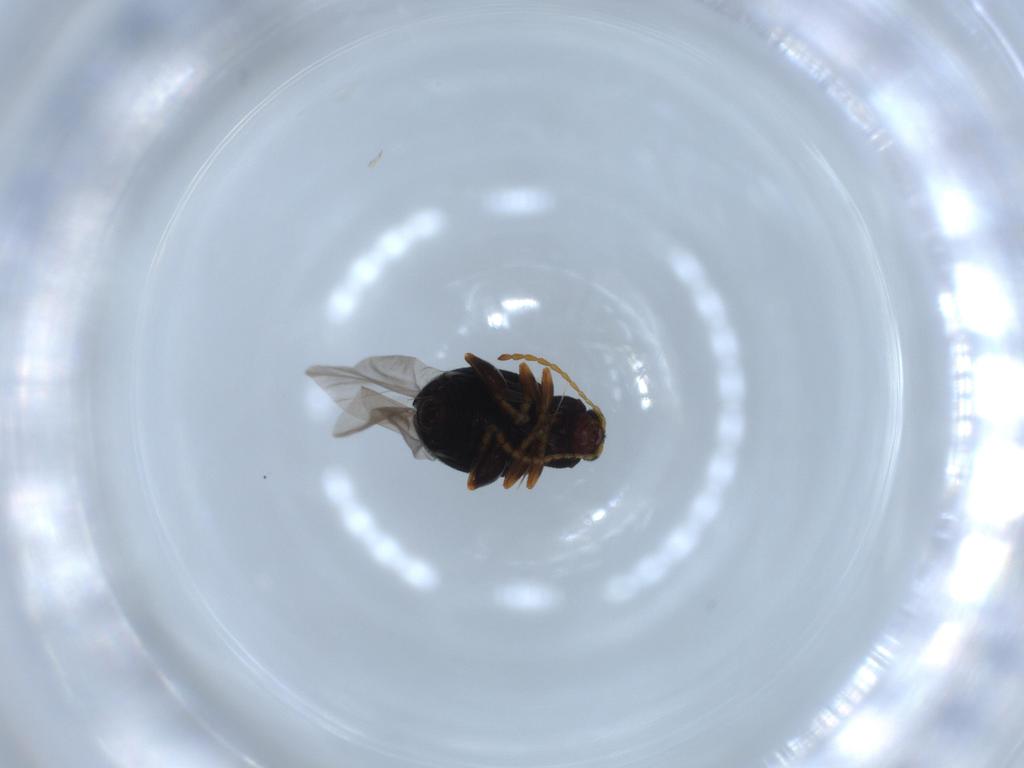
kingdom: Animalia
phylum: Arthropoda
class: Insecta
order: Coleoptera
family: Chrysomelidae
